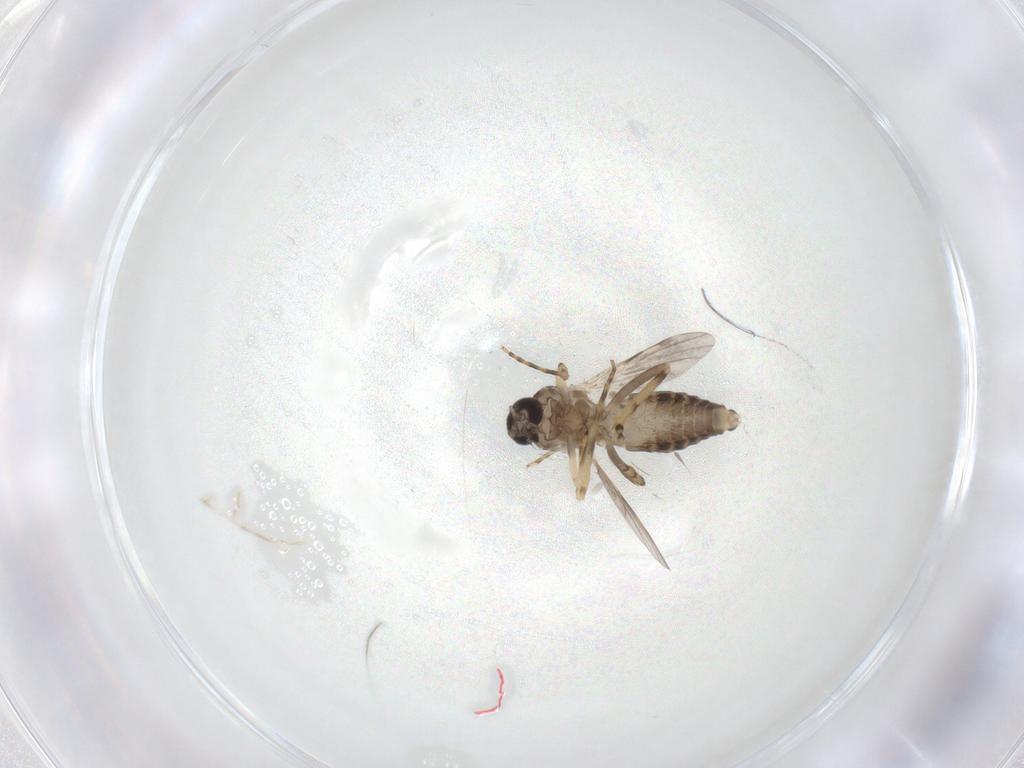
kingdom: Animalia
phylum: Arthropoda
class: Insecta
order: Diptera
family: Ceratopogonidae
